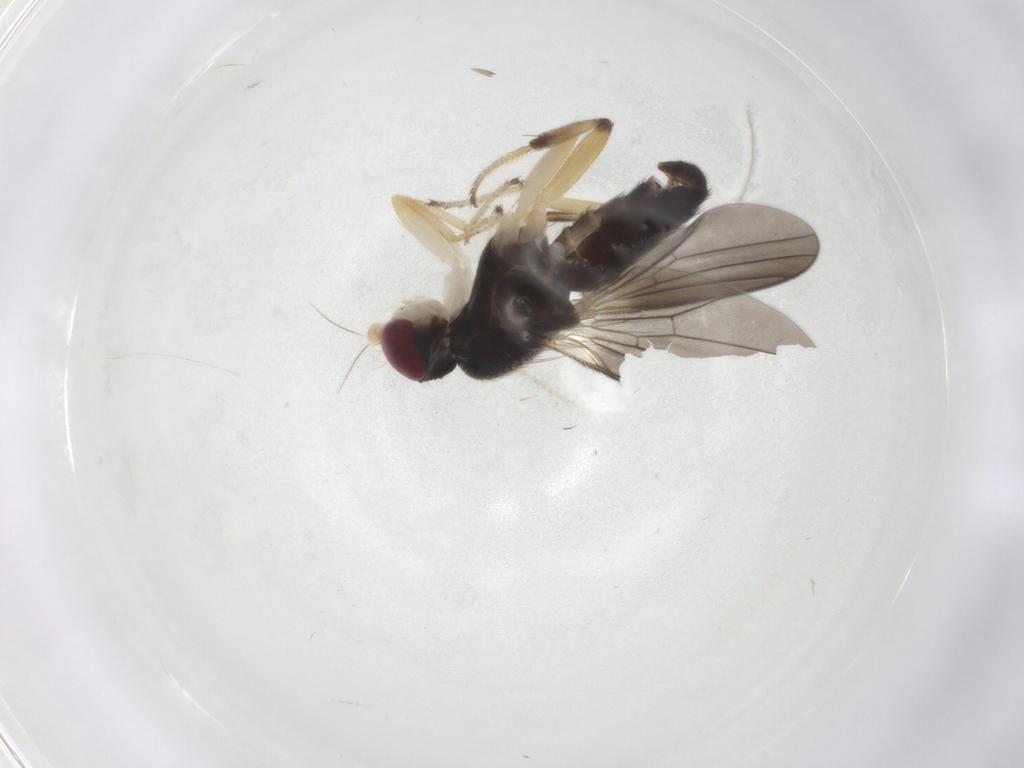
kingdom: Animalia
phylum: Arthropoda
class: Insecta
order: Diptera
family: Clusiidae
